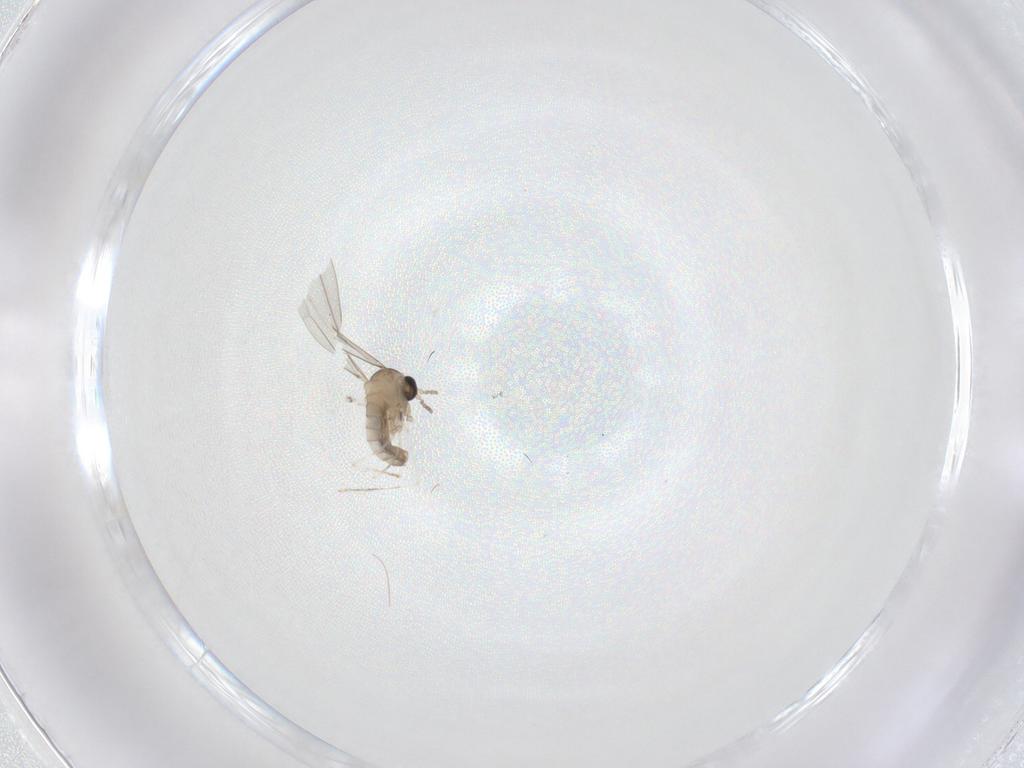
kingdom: Animalia
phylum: Arthropoda
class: Insecta
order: Diptera
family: Cecidomyiidae
